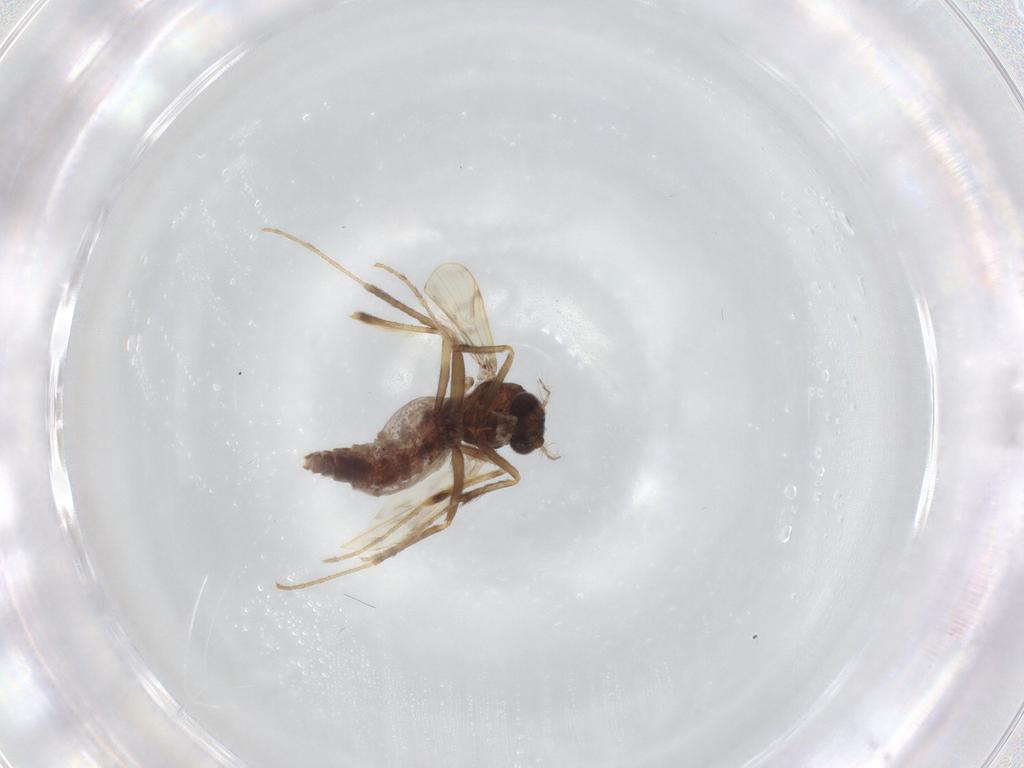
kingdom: Animalia
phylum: Arthropoda
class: Insecta
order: Diptera
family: Corethrellidae
